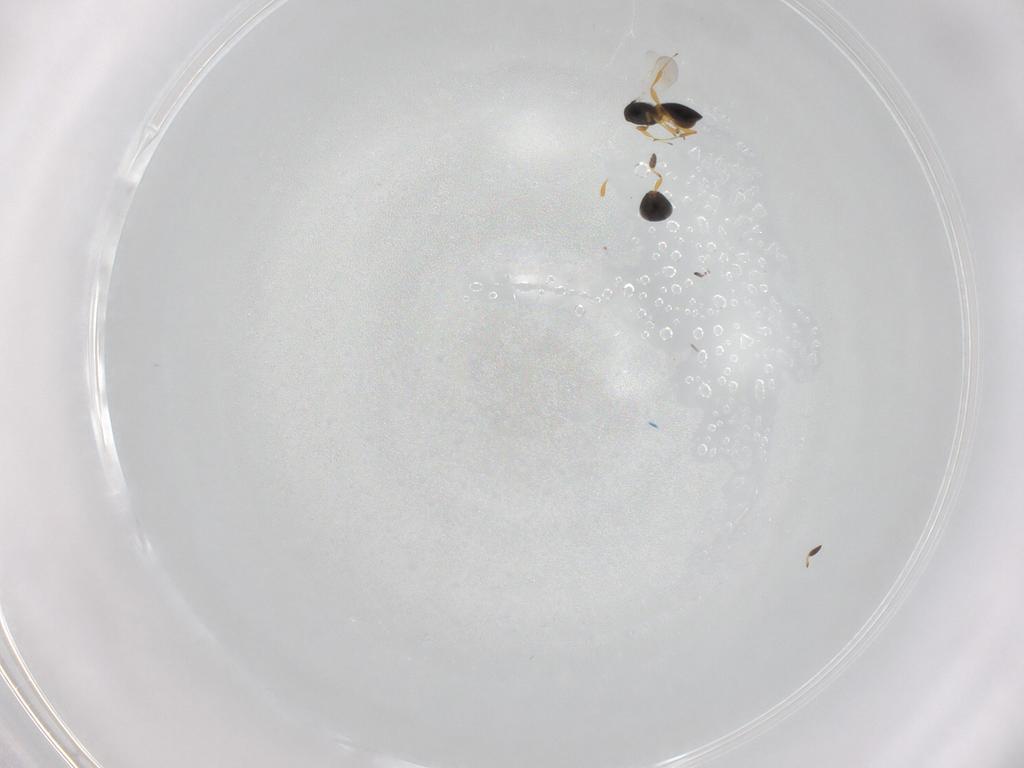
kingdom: Animalia
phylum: Arthropoda
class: Insecta
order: Hymenoptera
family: Platygastridae
